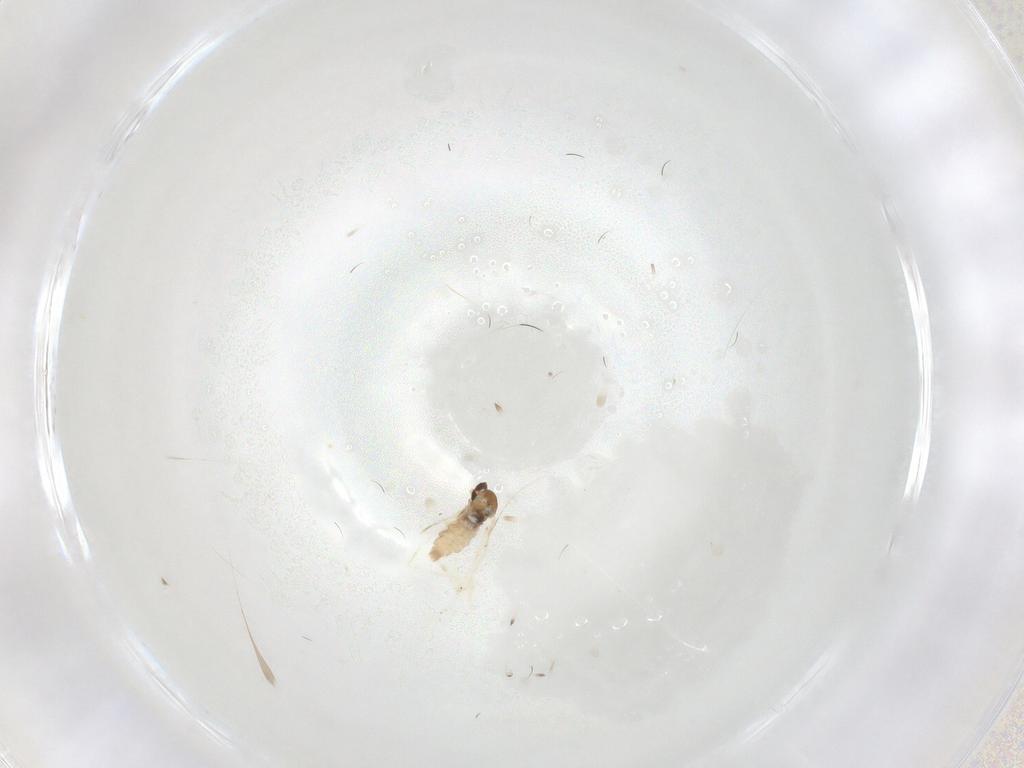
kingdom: Animalia
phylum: Arthropoda
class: Insecta
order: Diptera
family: Cecidomyiidae
